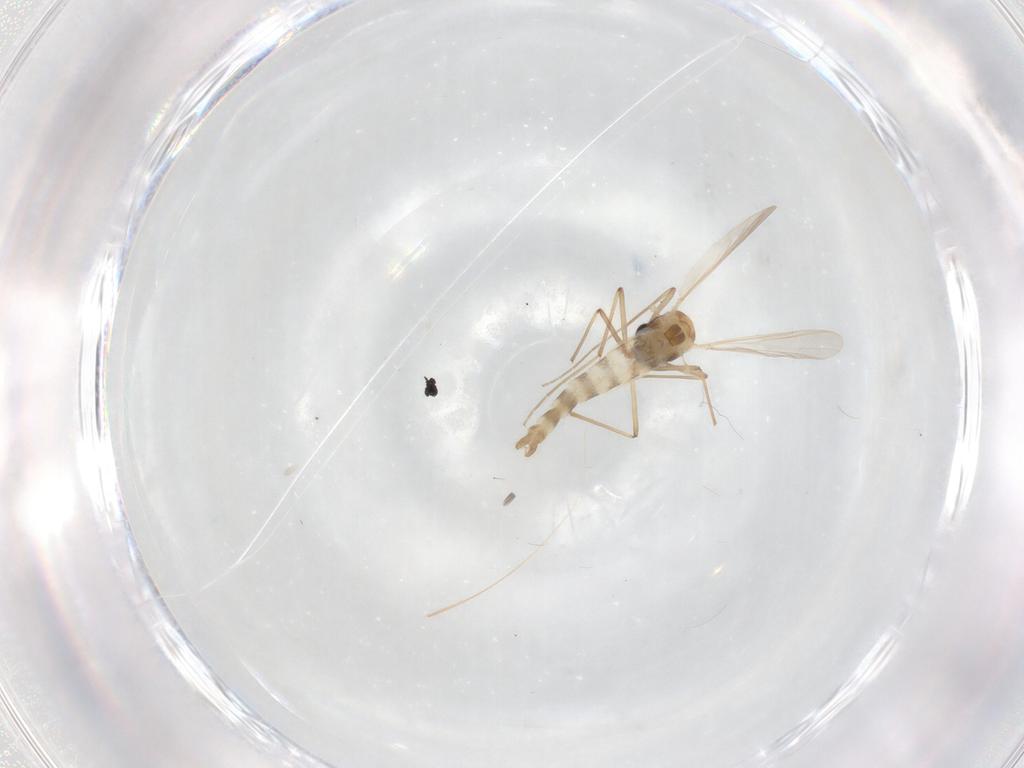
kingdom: Animalia
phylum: Arthropoda
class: Insecta
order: Diptera
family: Chironomidae
